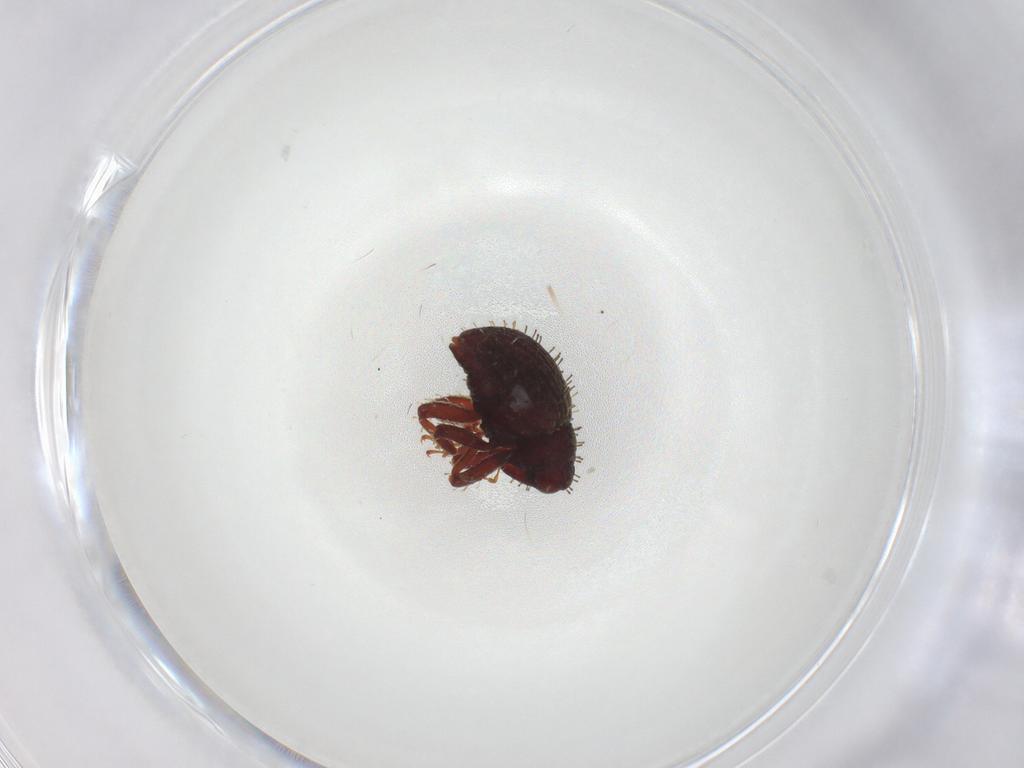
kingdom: Animalia
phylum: Arthropoda
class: Insecta
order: Coleoptera
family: Curculionidae
